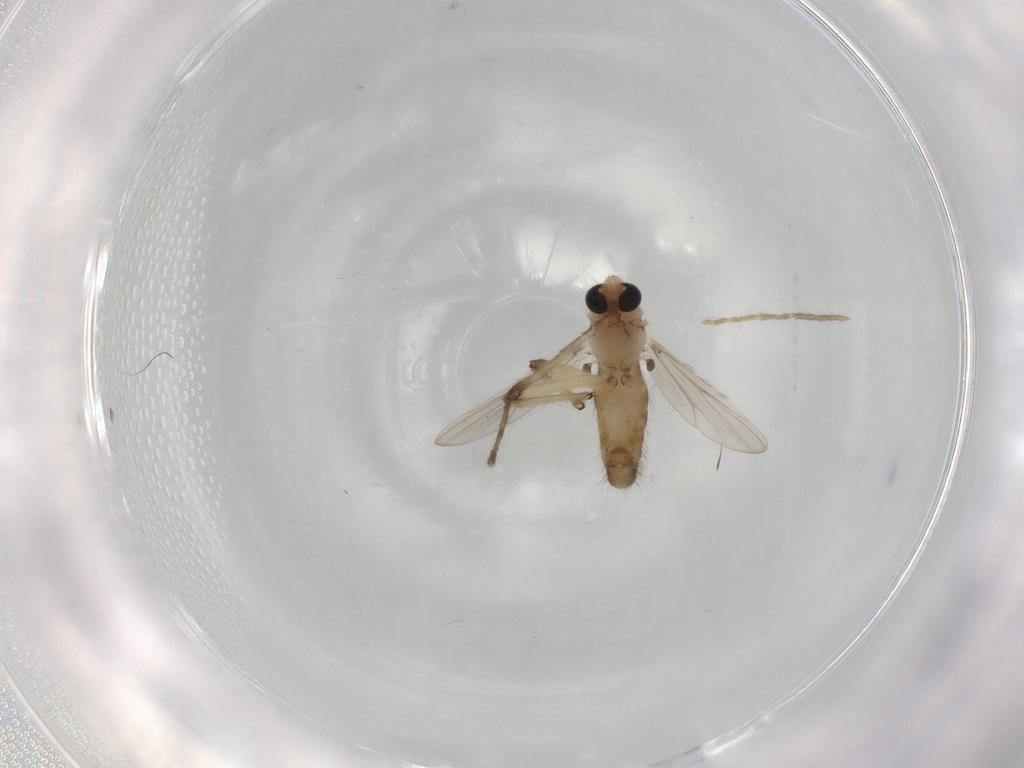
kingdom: Animalia
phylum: Arthropoda
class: Insecta
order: Diptera
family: Chironomidae
